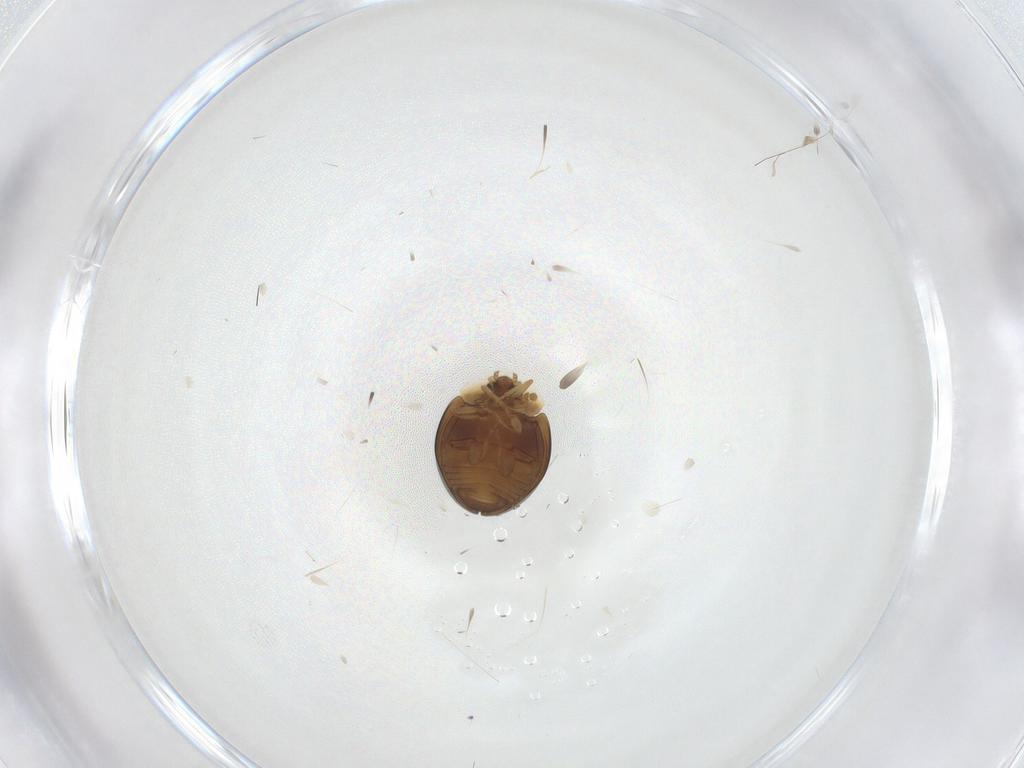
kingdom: Animalia
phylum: Arthropoda
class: Insecta
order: Coleoptera
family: Corylophidae
